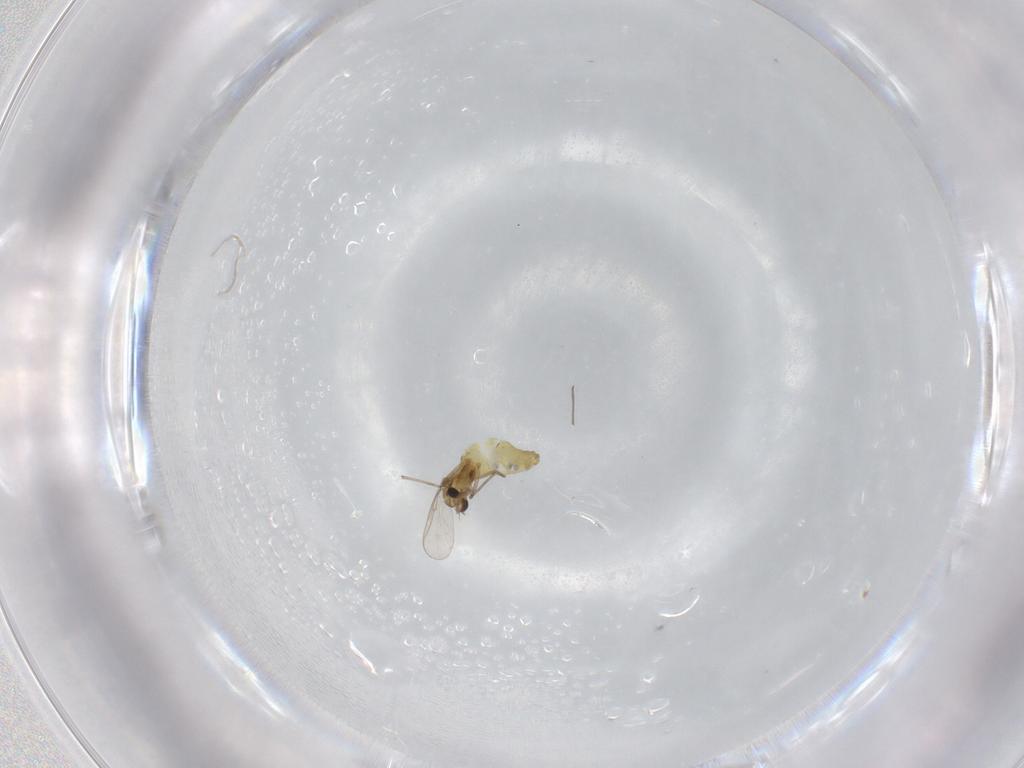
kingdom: Animalia
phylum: Arthropoda
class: Insecta
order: Diptera
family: Chironomidae
